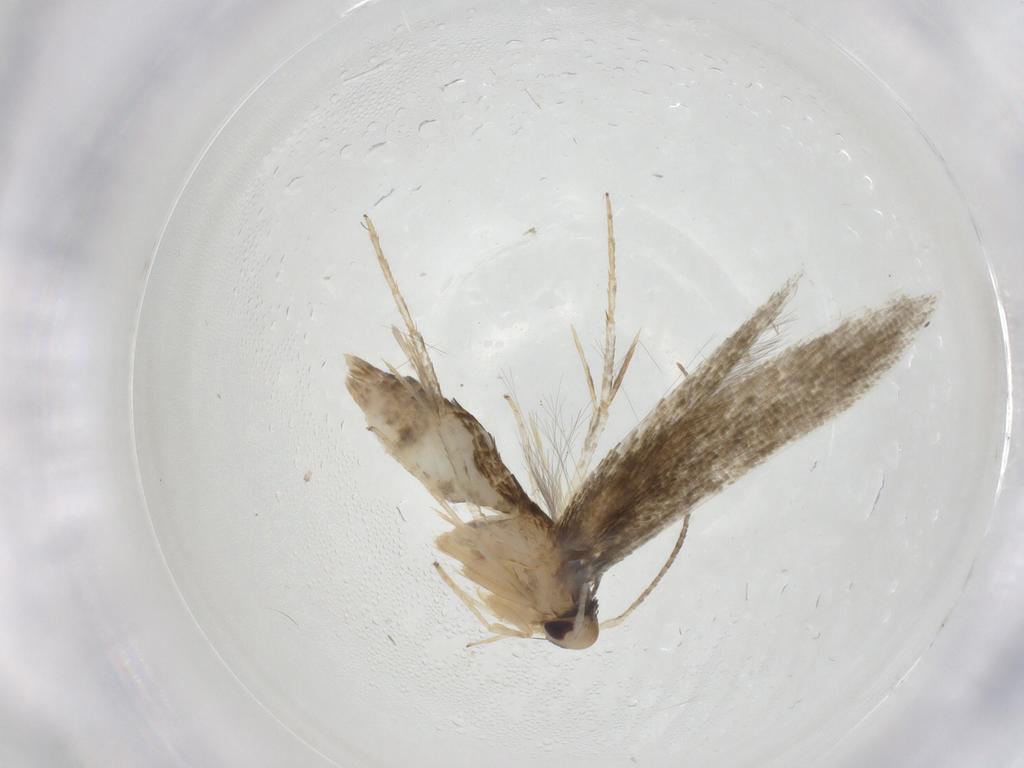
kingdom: Animalia
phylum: Arthropoda
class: Insecta
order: Lepidoptera
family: Stathmopodidae
